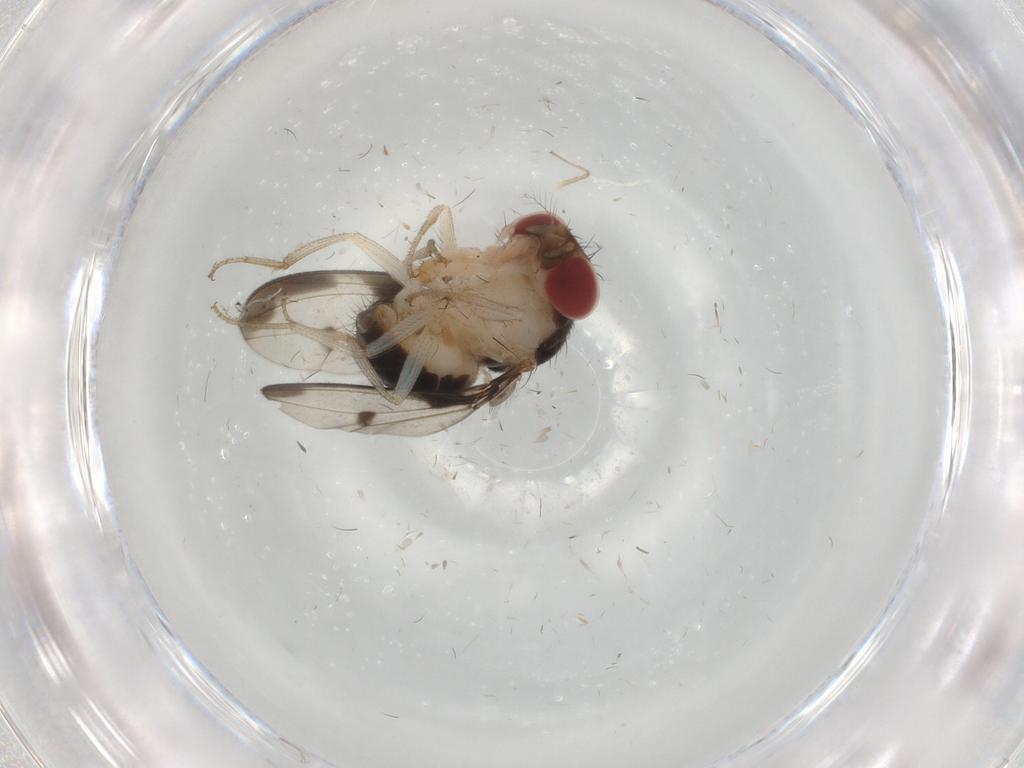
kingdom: Animalia
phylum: Arthropoda
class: Insecta
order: Diptera
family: Drosophilidae
